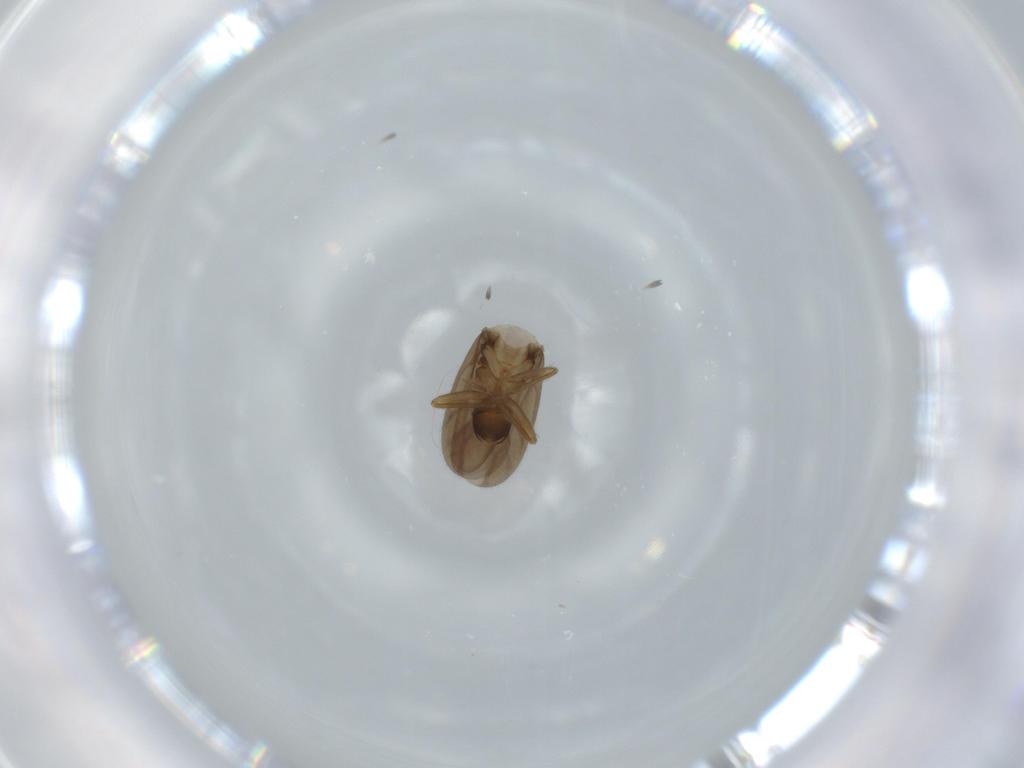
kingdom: Animalia
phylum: Arthropoda
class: Insecta
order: Hemiptera
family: Ceratocombidae
